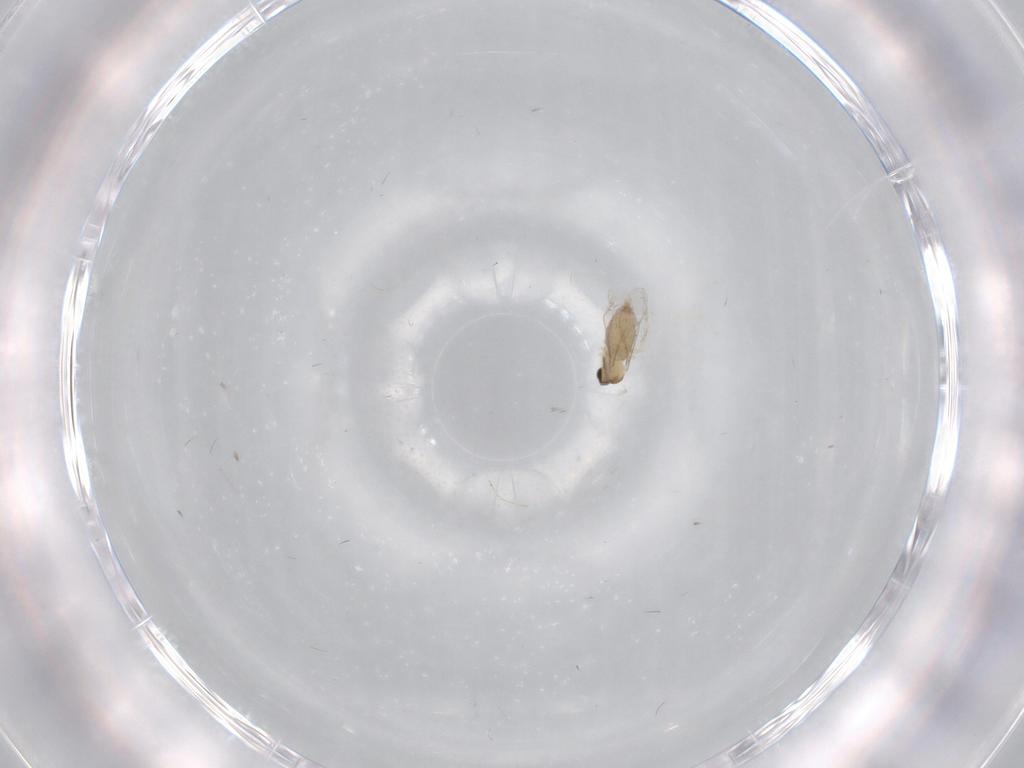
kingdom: Animalia
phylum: Arthropoda
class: Insecta
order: Diptera
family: Cecidomyiidae
